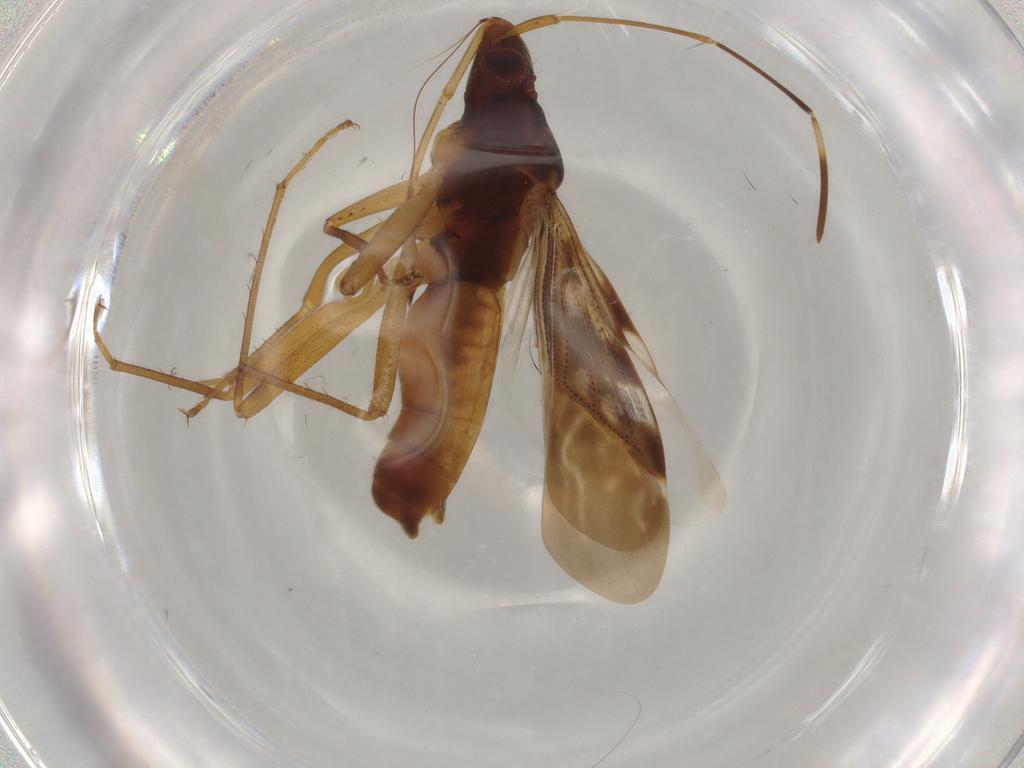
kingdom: Animalia
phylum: Arthropoda
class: Insecta
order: Hemiptera
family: Rhyparochromidae
